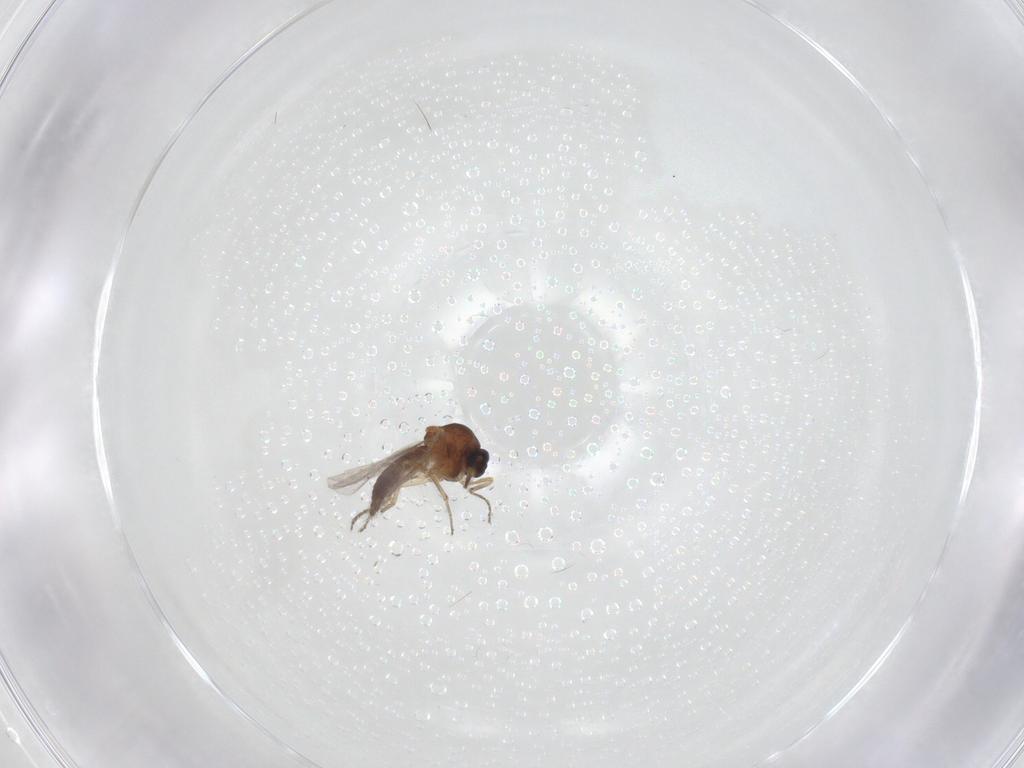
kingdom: Animalia
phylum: Arthropoda
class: Insecta
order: Diptera
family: Ceratopogonidae
